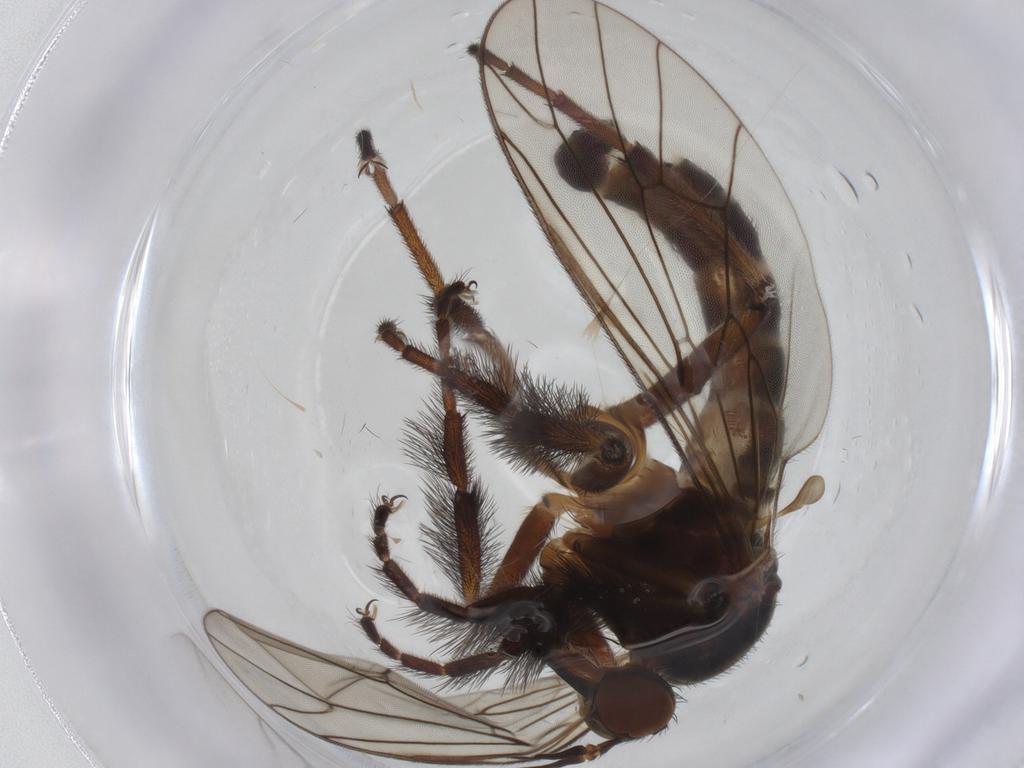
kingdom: Animalia
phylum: Arthropoda
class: Insecta
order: Diptera
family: Empididae
